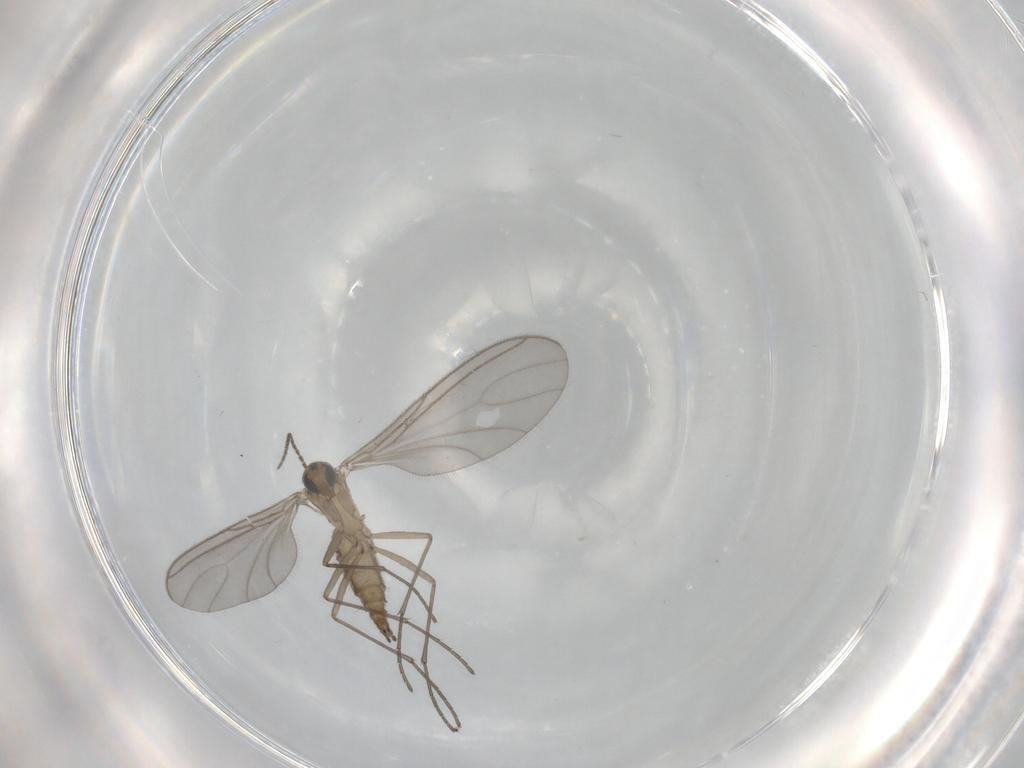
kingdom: Animalia
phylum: Arthropoda
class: Insecta
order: Diptera
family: Sciaridae
